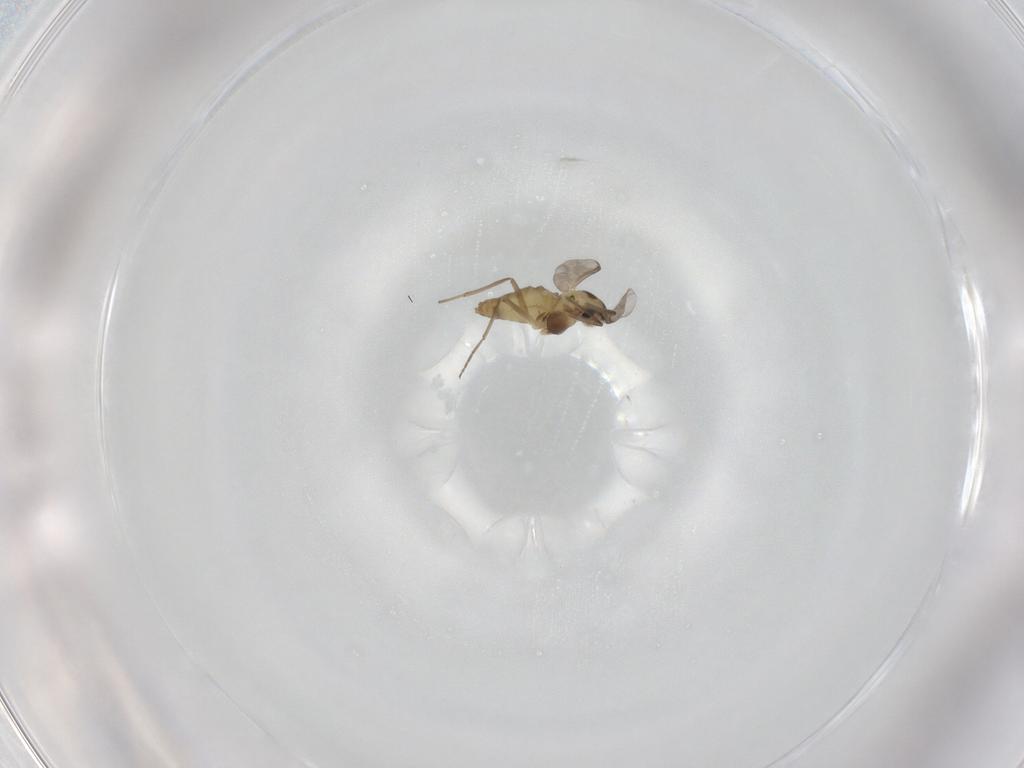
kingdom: Animalia
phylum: Arthropoda
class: Insecta
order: Diptera
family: Chironomidae
